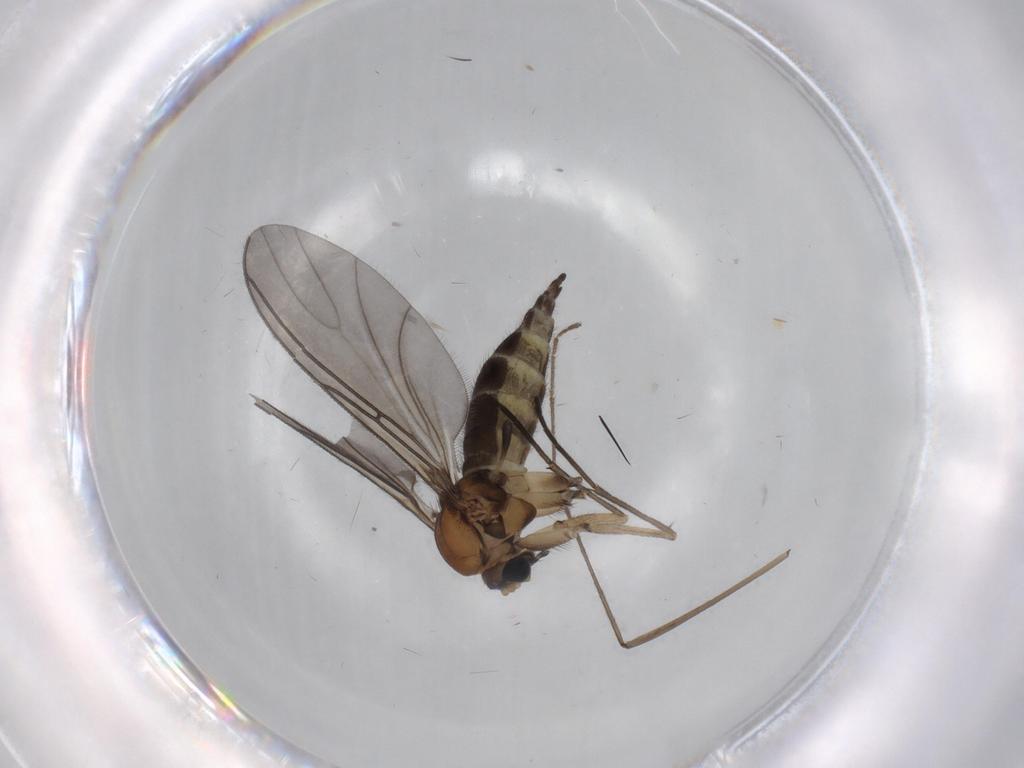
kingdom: Animalia
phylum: Arthropoda
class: Insecta
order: Diptera
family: Sciaridae
